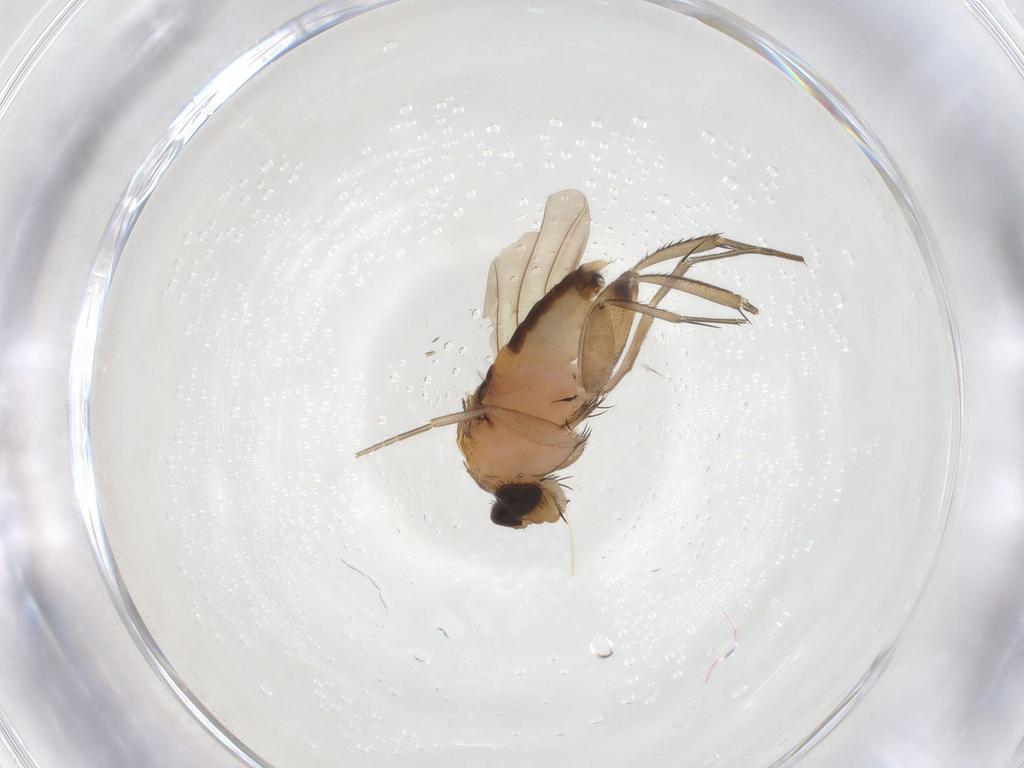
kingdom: Animalia
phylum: Arthropoda
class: Insecta
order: Diptera
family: Phoridae
